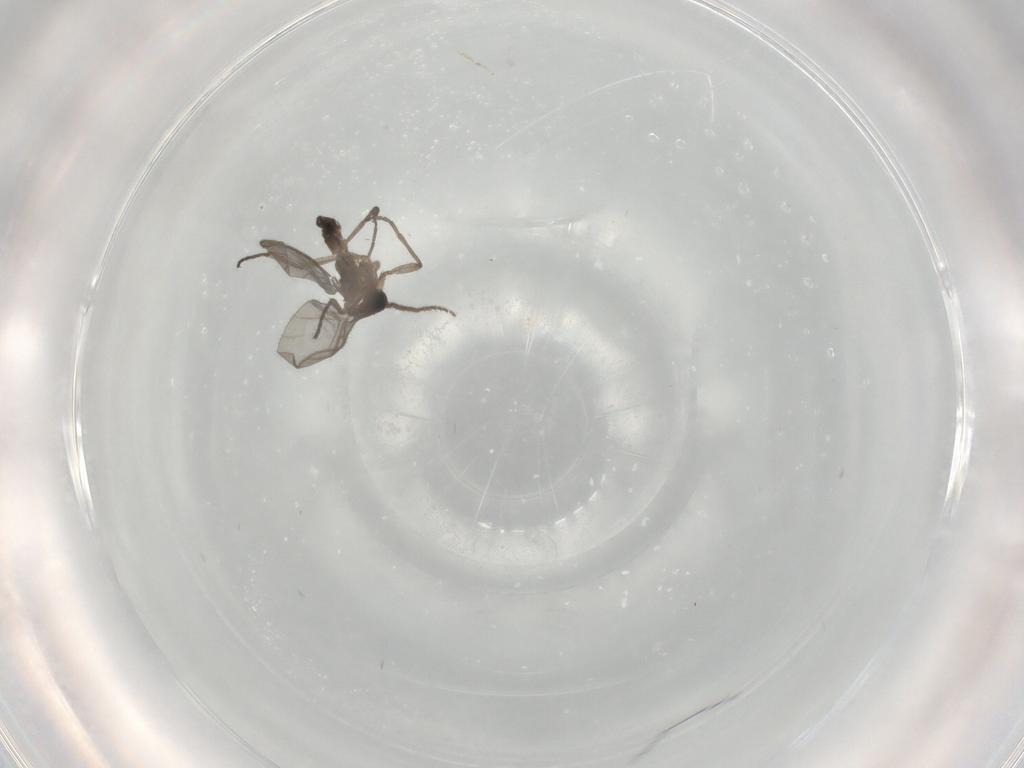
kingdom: Animalia
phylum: Arthropoda
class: Insecta
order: Diptera
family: Sciaridae
